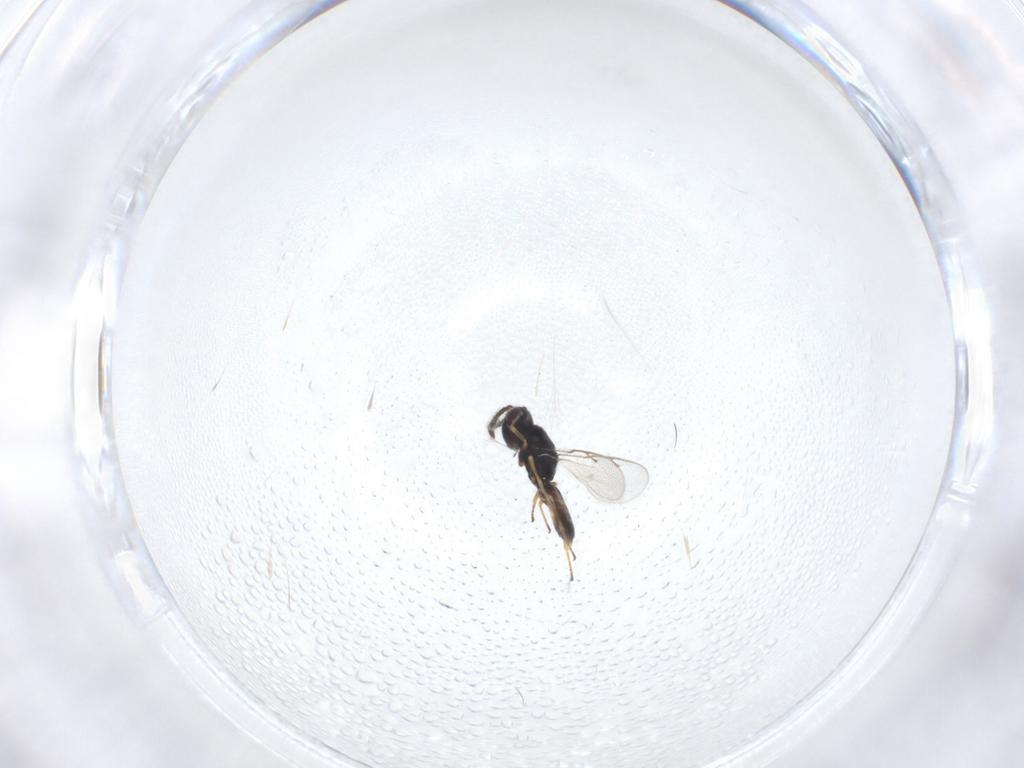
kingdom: Animalia
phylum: Arthropoda
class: Insecta
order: Hymenoptera
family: Pteromalidae
